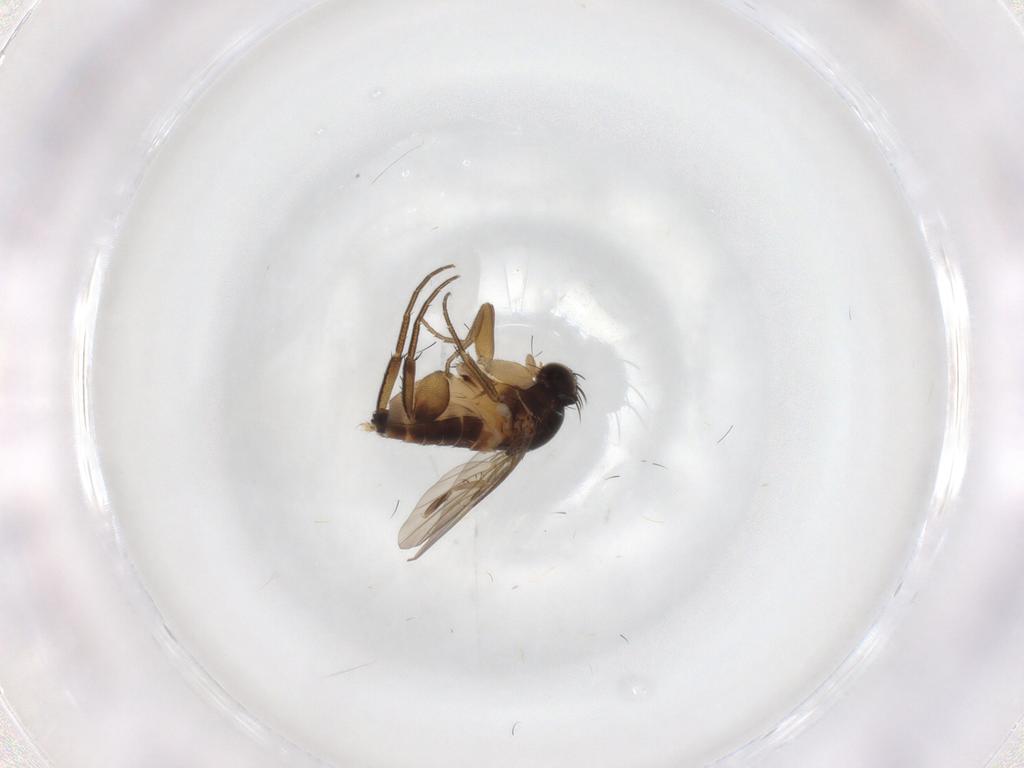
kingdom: Animalia
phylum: Arthropoda
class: Insecta
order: Diptera
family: Phoridae
